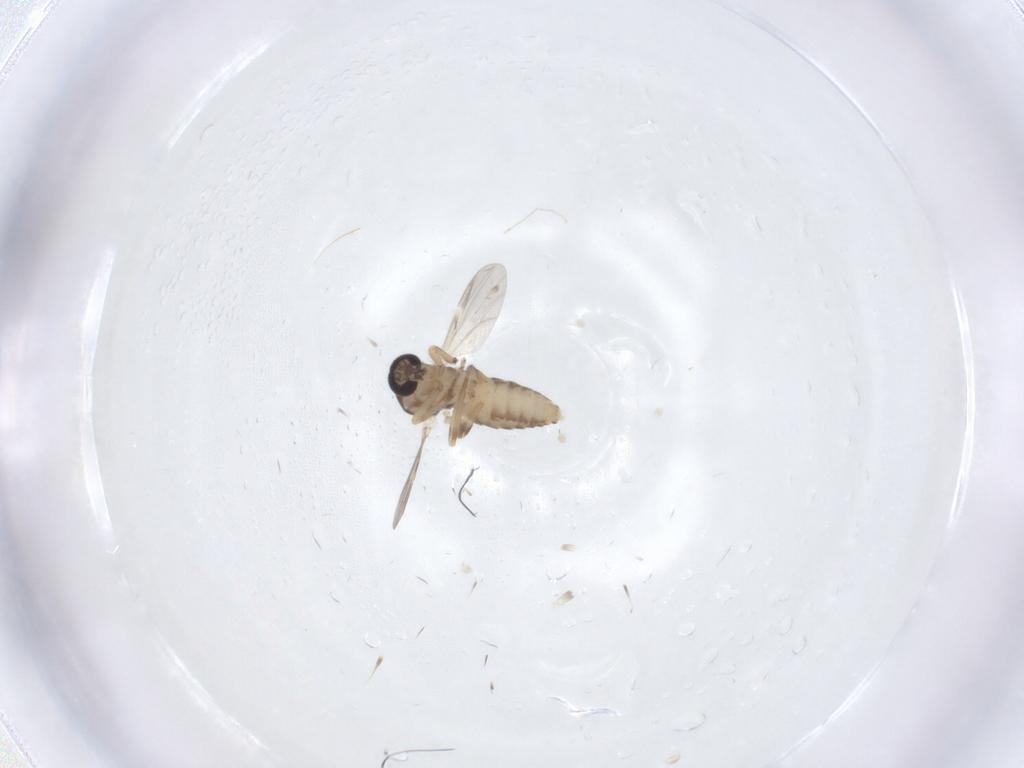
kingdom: Animalia
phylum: Arthropoda
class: Insecta
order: Diptera
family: Ceratopogonidae
